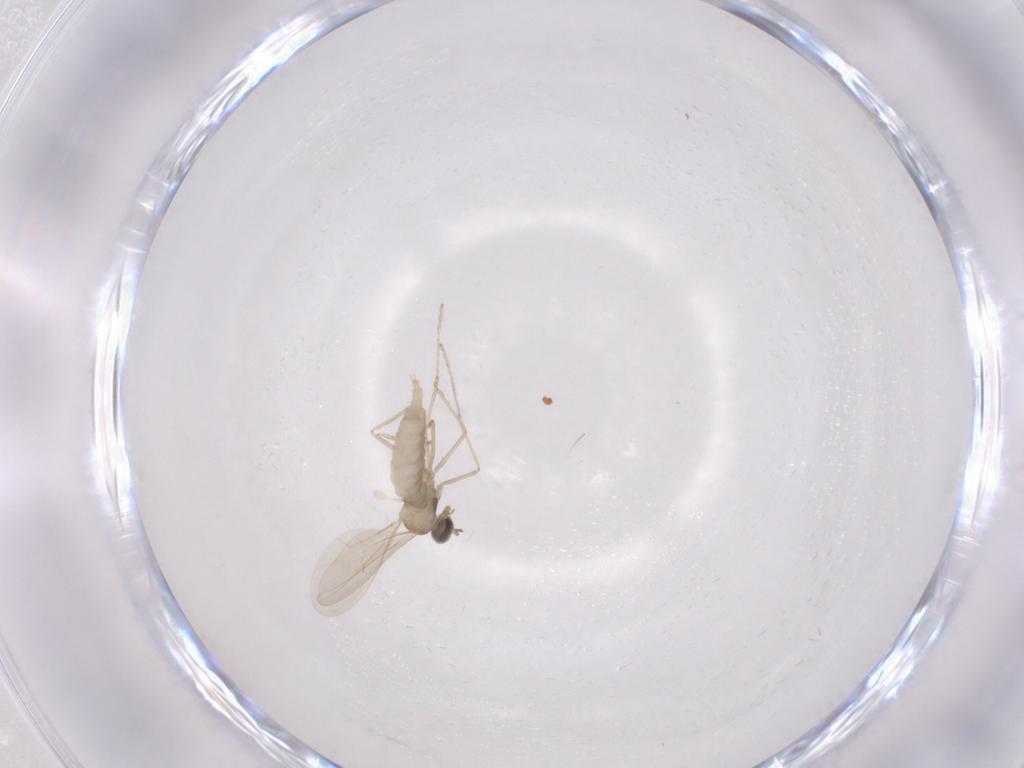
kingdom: Animalia
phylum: Arthropoda
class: Insecta
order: Diptera
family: Cecidomyiidae
